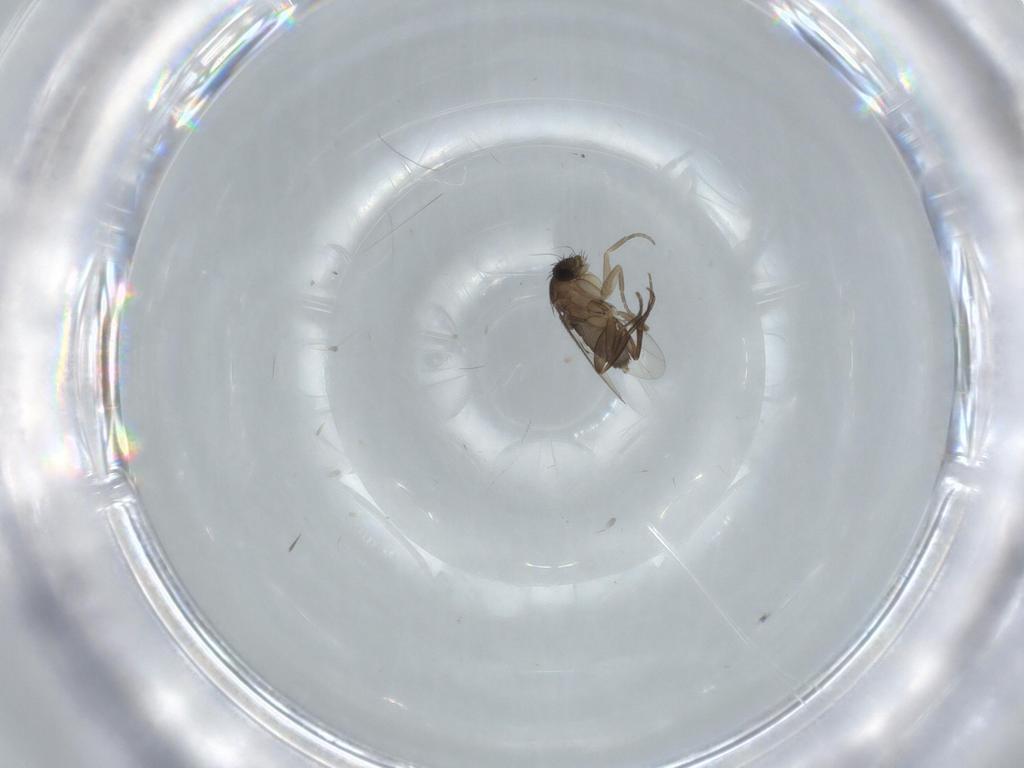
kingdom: Animalia
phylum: Arthropoda
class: Insecta
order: Diptera
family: Phoridae
